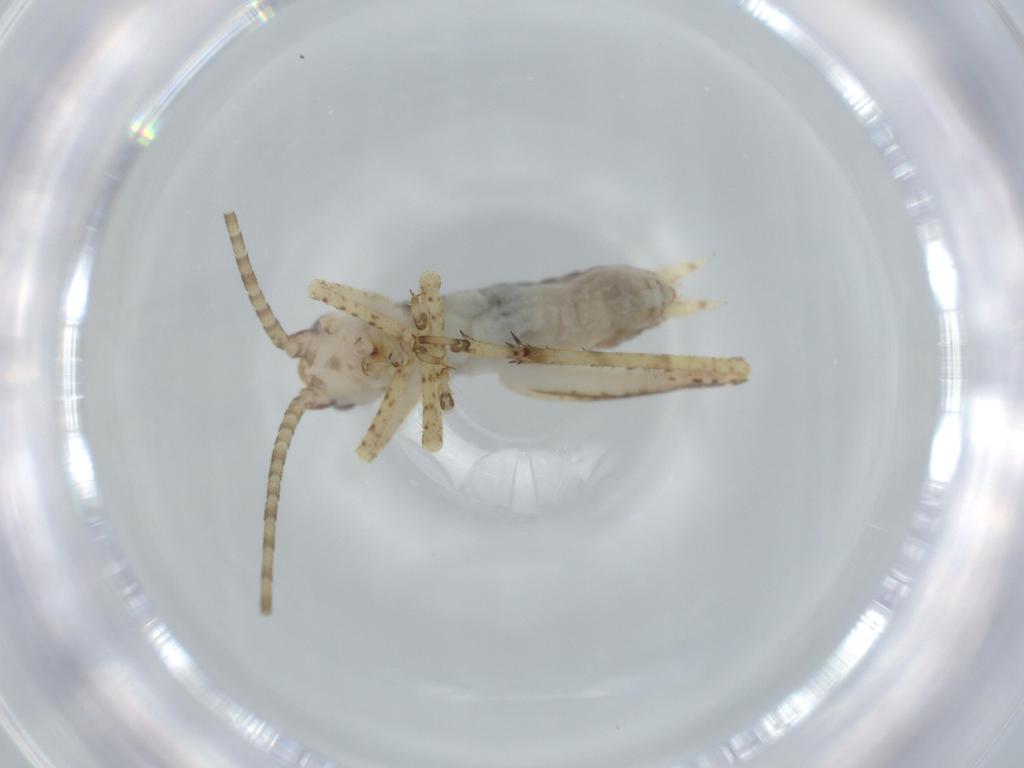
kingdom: Animalia
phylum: Arthropoda
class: Insecta
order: Orthoptera
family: Gryllidae
